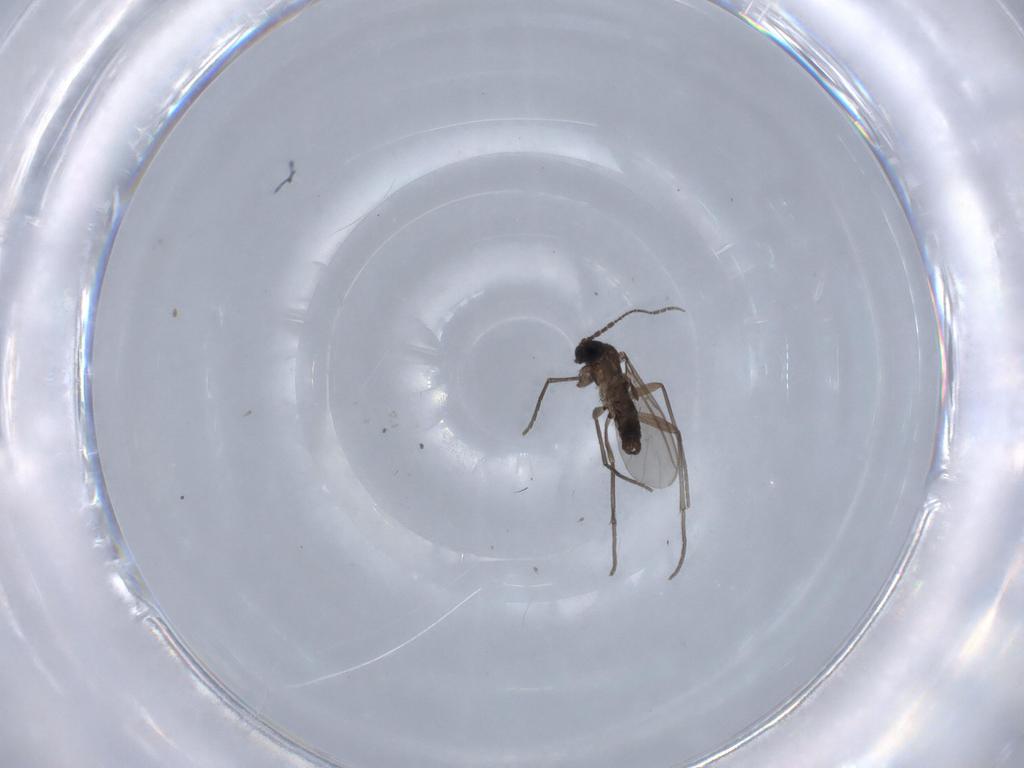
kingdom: Animalia
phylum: Arthropoda
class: Insecta
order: Diptera
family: Sciaridae
